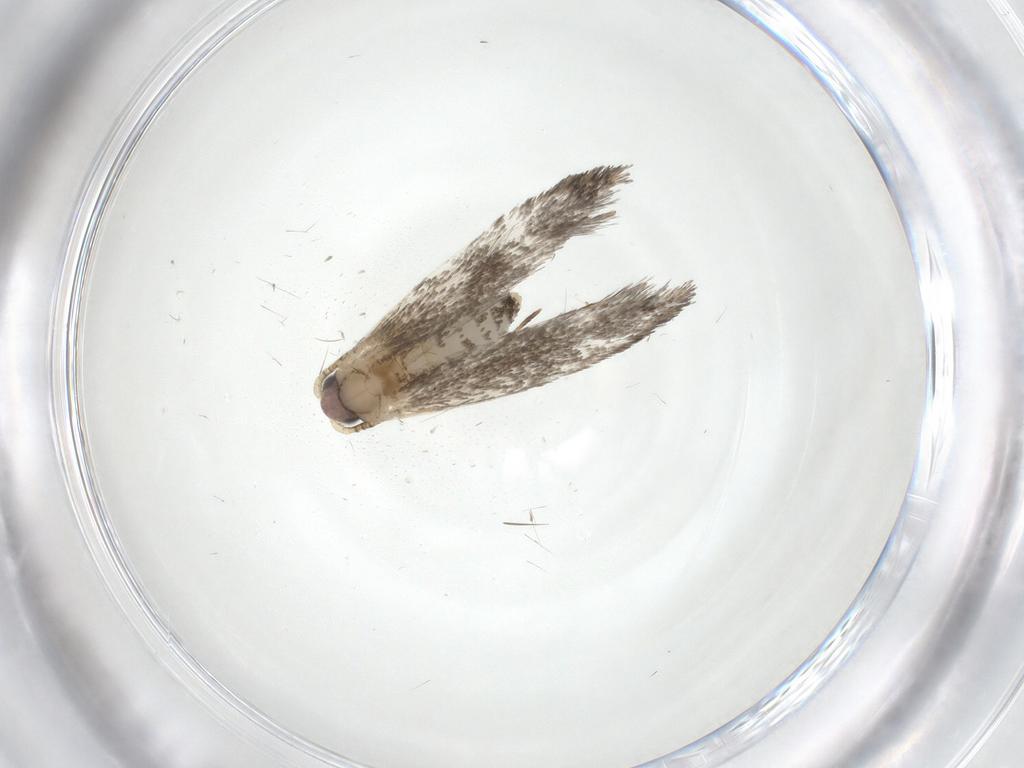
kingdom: Animalia
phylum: Arthropoda
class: Insecta
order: Lepidoptera
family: Tineidae
